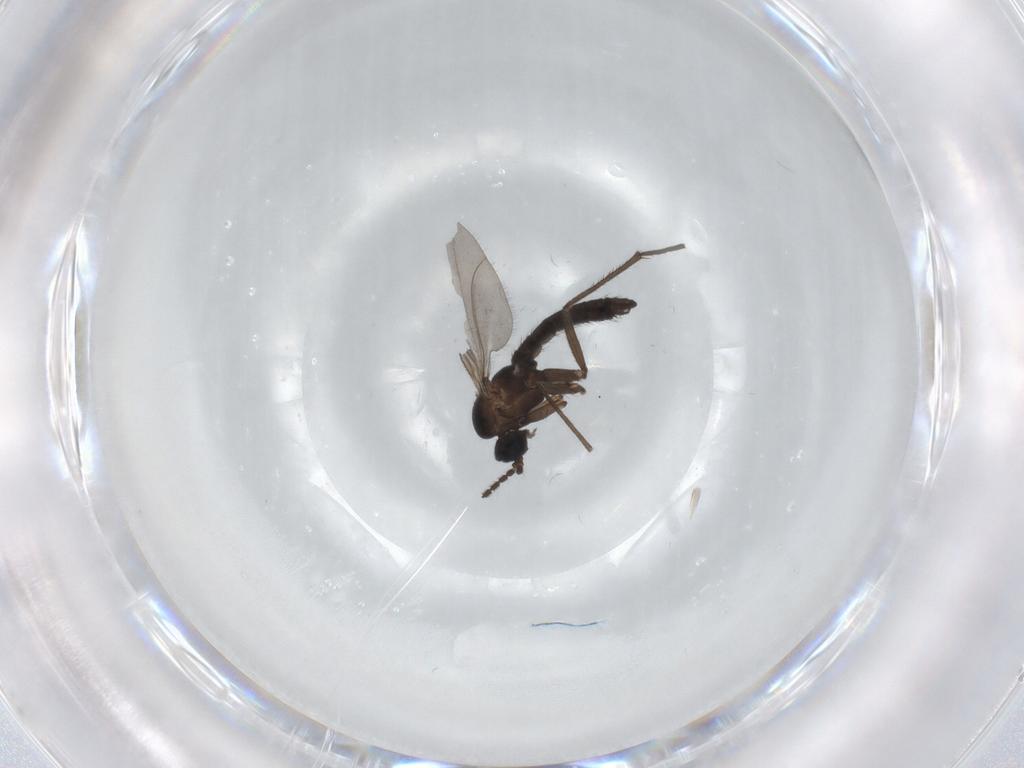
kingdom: Animalia
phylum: Arthropoda
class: Insecta
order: Diptera
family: Sciaridae
